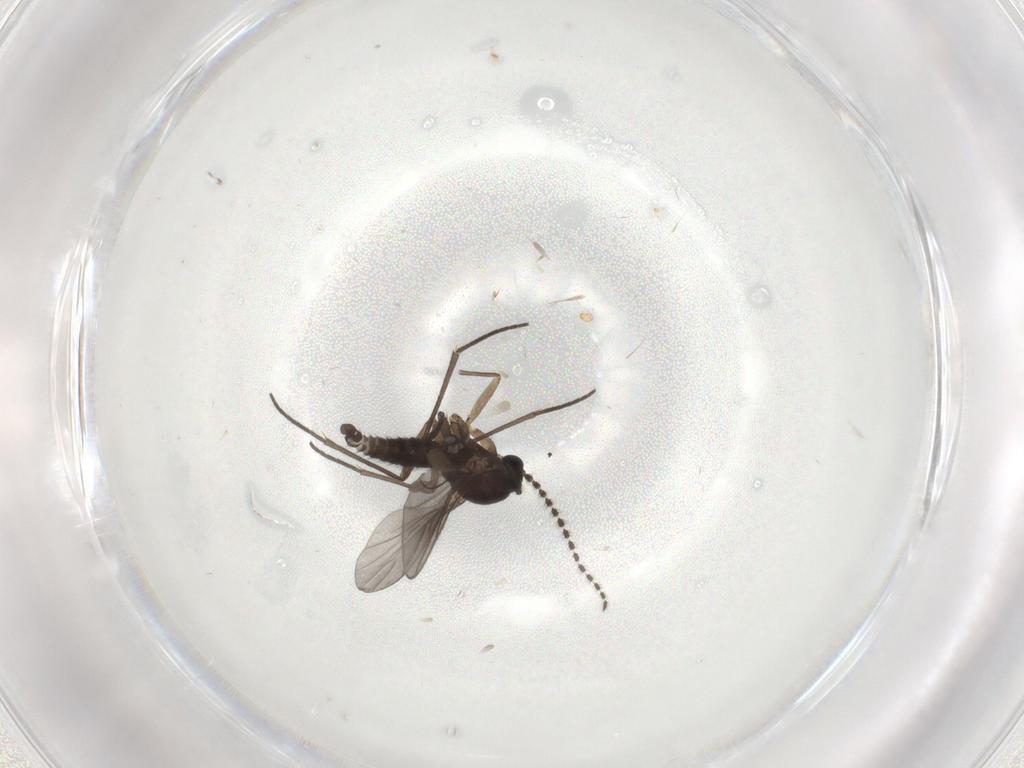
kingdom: Animalia
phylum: Arthropoda
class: Insecta
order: Diptera
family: Sciaridae
